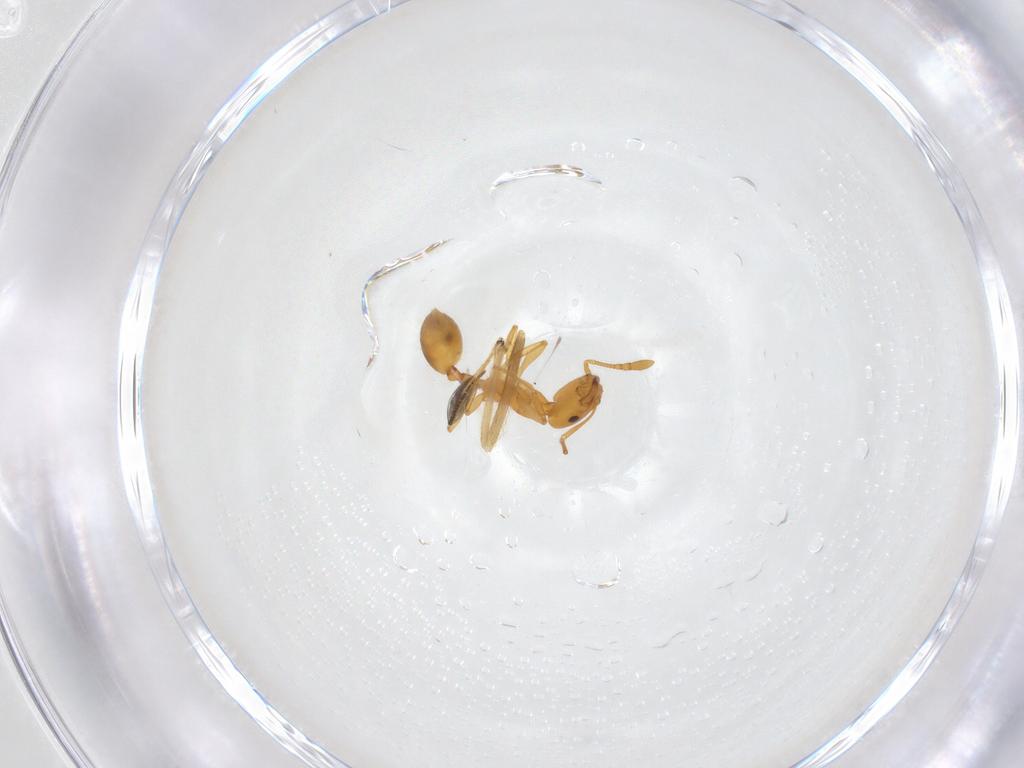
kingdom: Animalia
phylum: Arthropoda
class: Insecta
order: Hymenoptera
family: Formicidae
